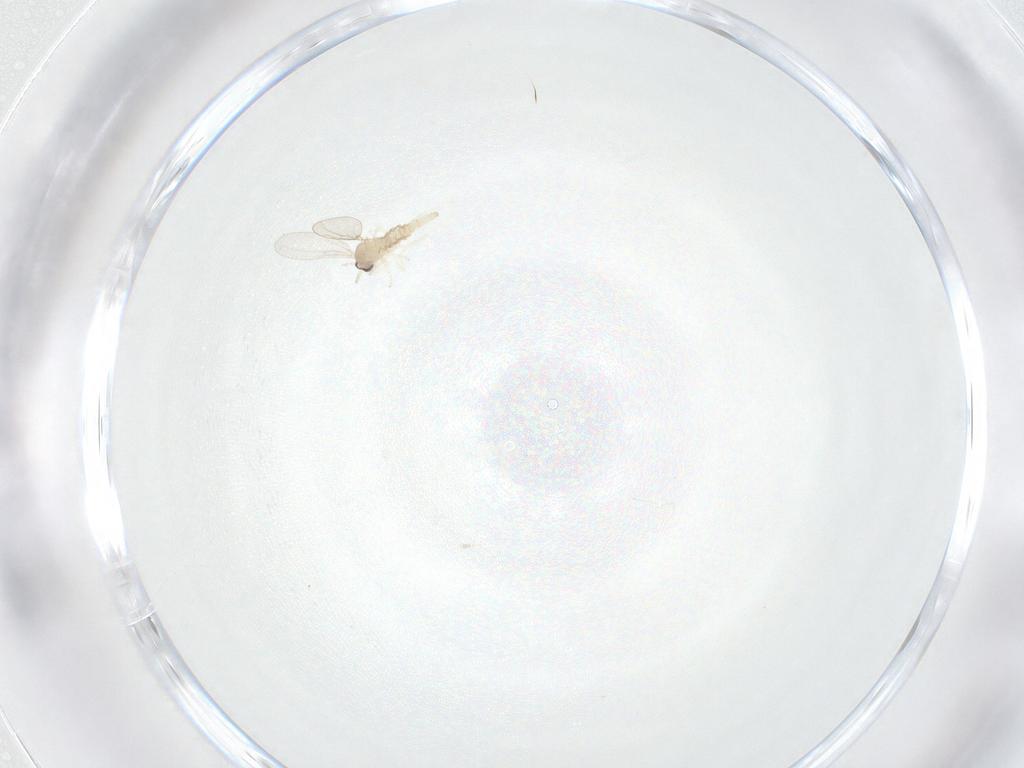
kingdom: Animalia
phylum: Arthropoda
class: Insecta
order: Diptera
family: Cecidomyiidae
